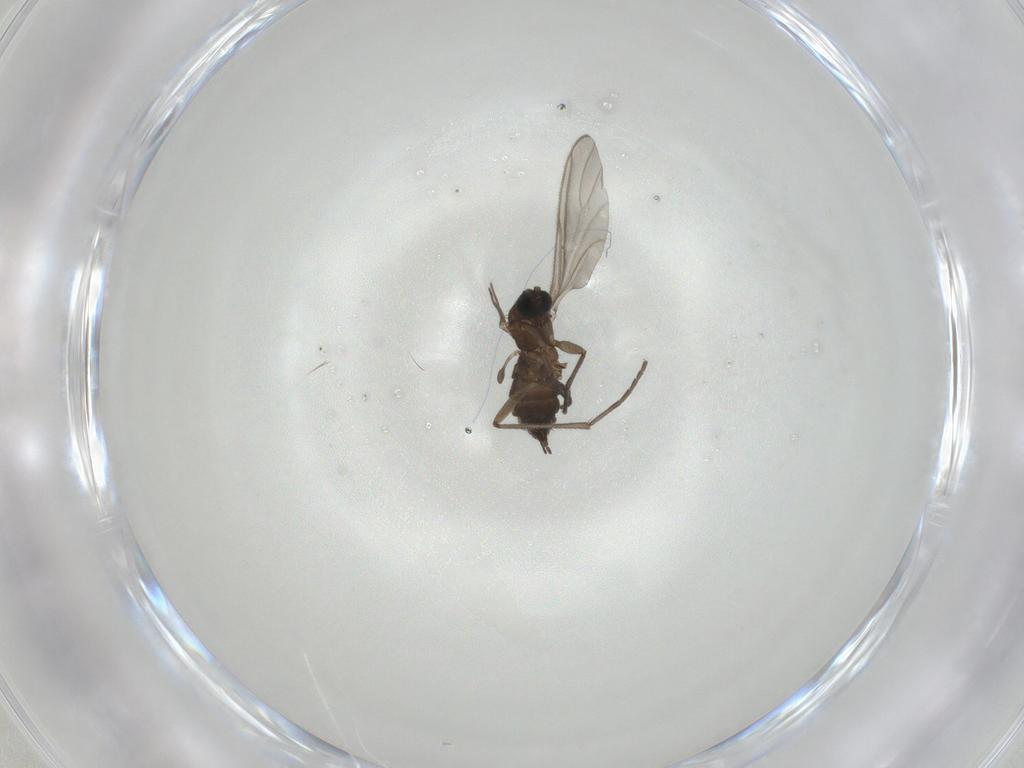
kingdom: Animalia
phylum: Arthropoda
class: Insecta
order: Diptera
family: Sciaridae
